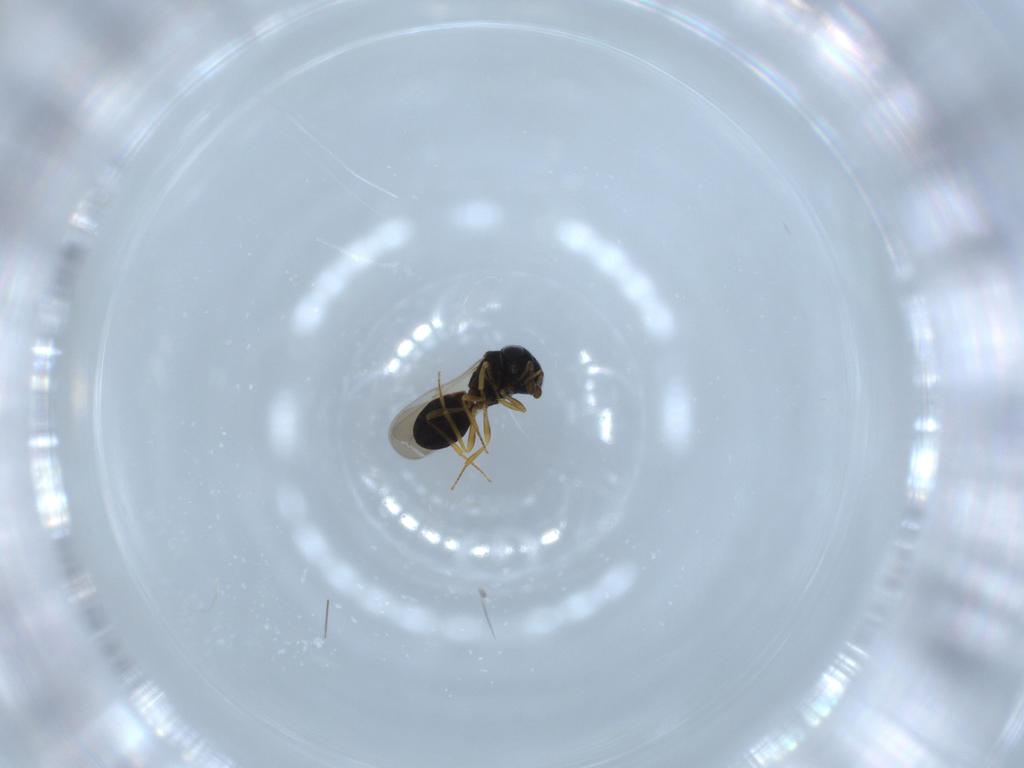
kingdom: Animalia
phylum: Arthropoda
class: Insecta
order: Hymenoptera
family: Scelionidae
